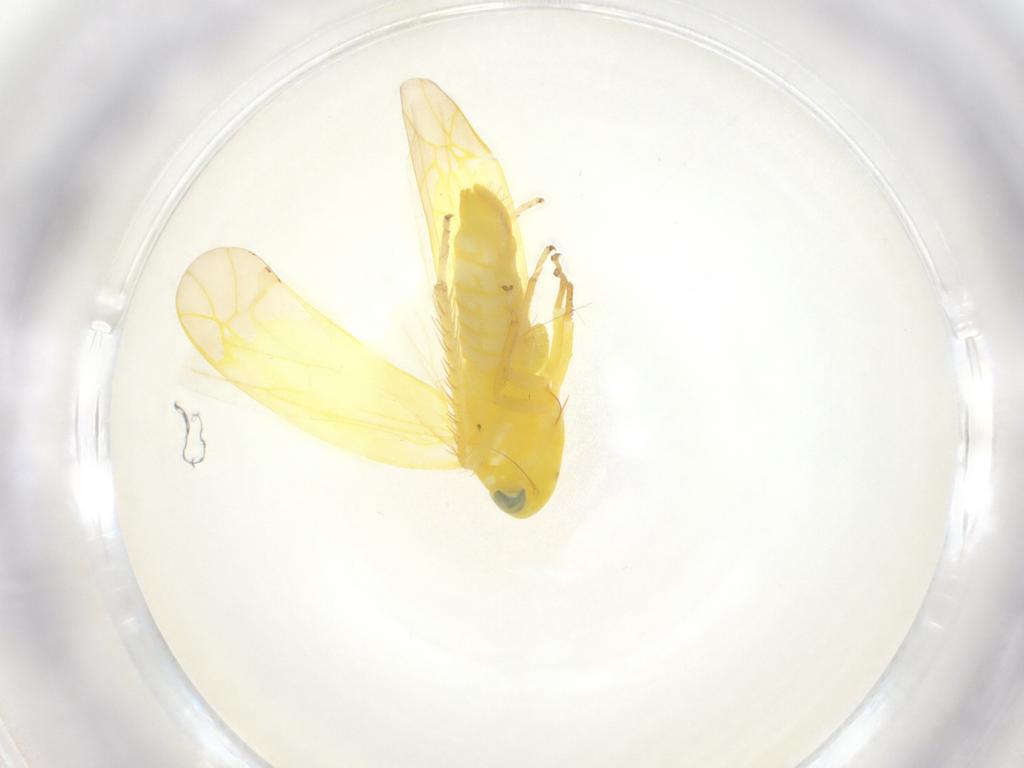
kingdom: Animalia
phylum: Arthropoda
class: Insecta
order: Hemiptera
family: Cicadellidae
